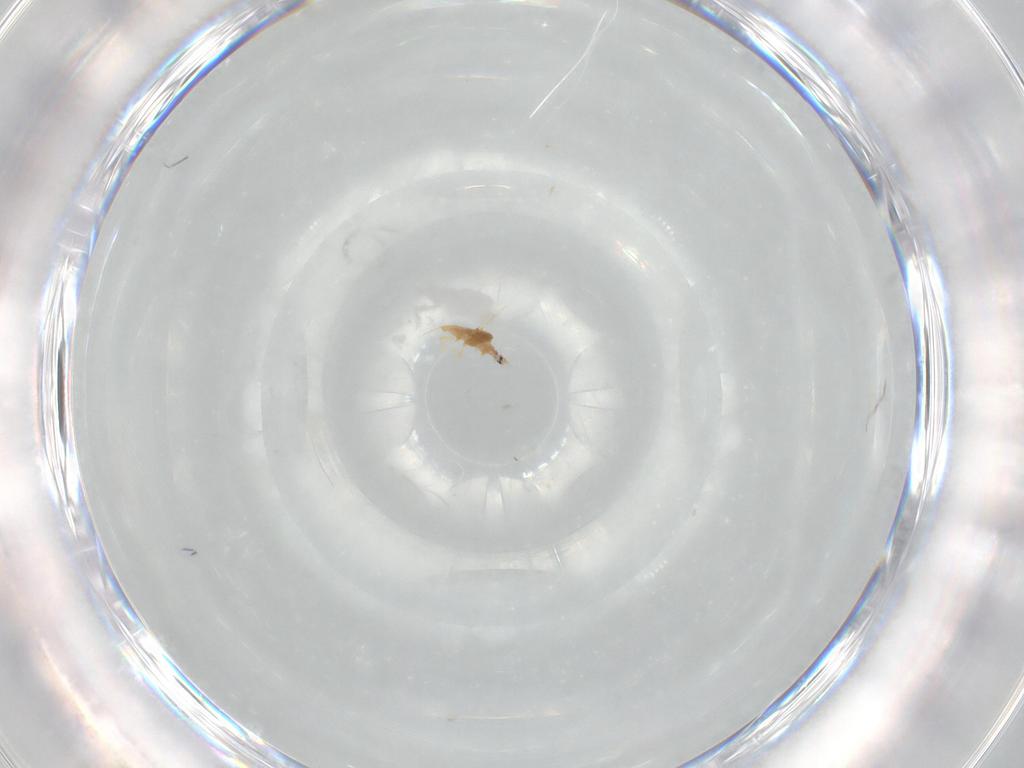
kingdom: Animalia
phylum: Arthropoda
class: Insecta
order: Hemiptera
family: Diaspididae
